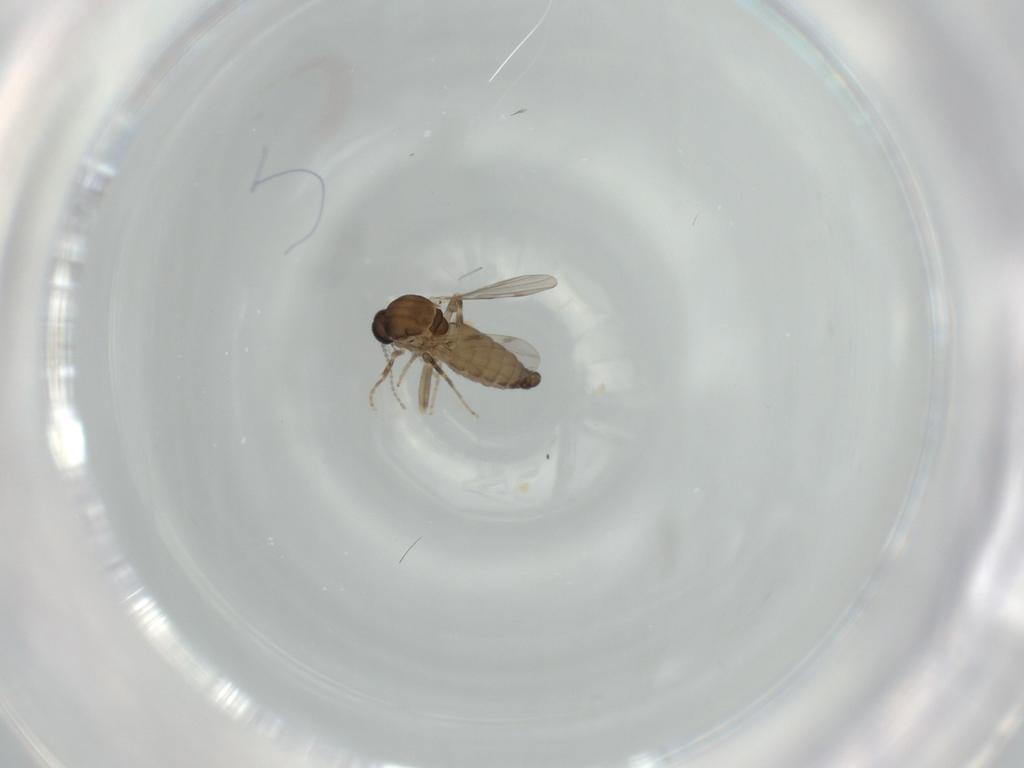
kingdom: Animalia
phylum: Arthropoda
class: Insecta
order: Diptera
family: Ceratopogonidae
